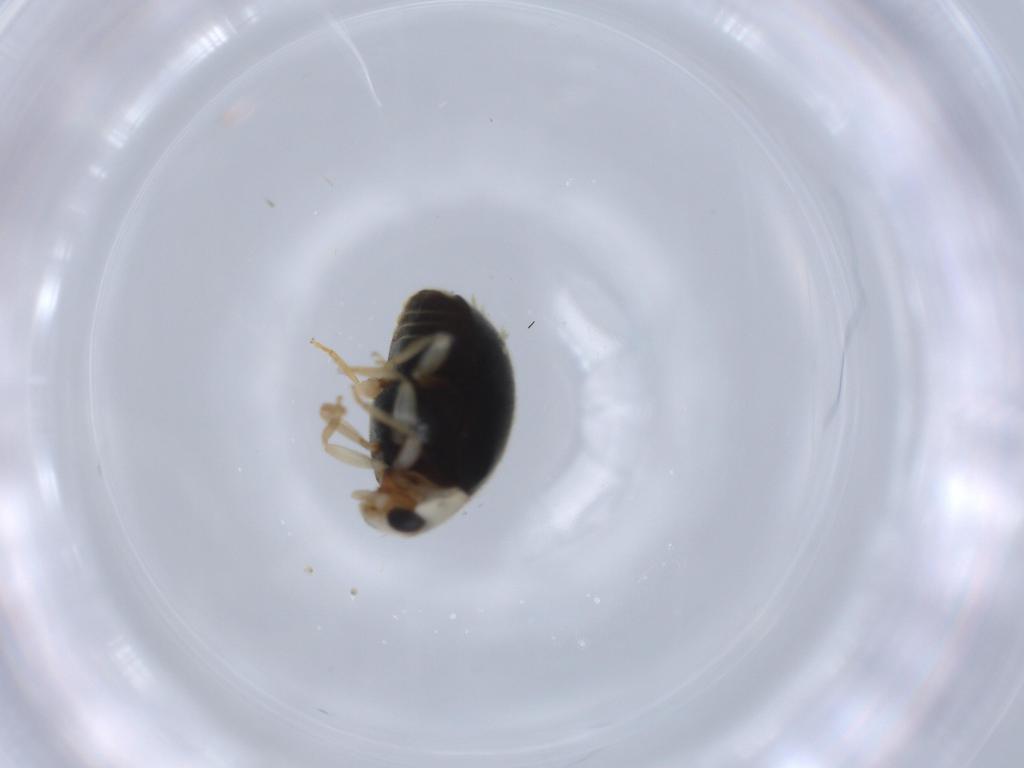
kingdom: Animalia
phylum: Arthropoda
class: Insecta
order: Coleoptera
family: Coccinellidae
